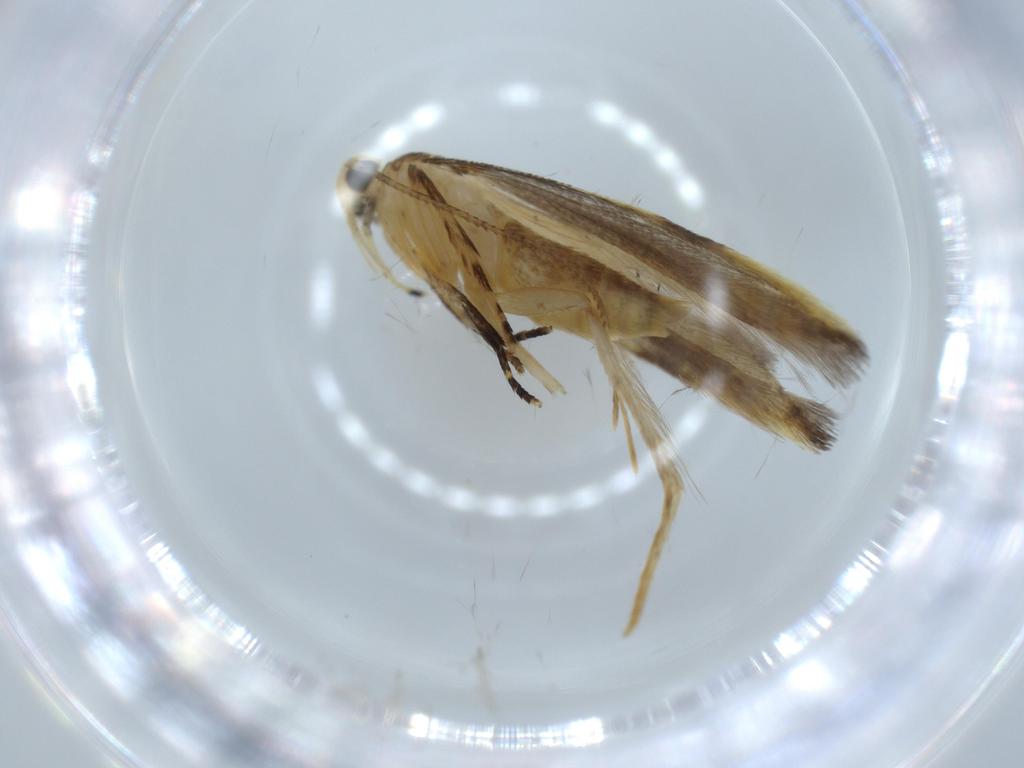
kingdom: Animalia
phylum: Arthropoda
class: Insecta
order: Lepidoptera
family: Autostichidae
